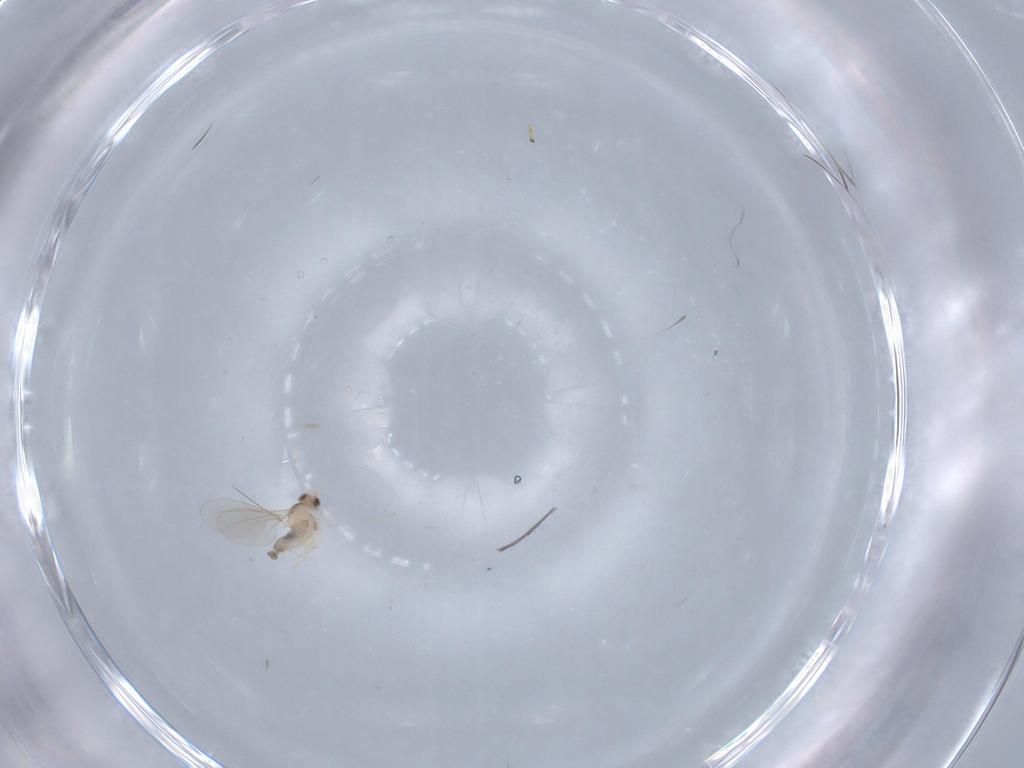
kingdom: Animalia
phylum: Arthropoda
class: Insecta
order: Diptera
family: Cecidomyiidae
